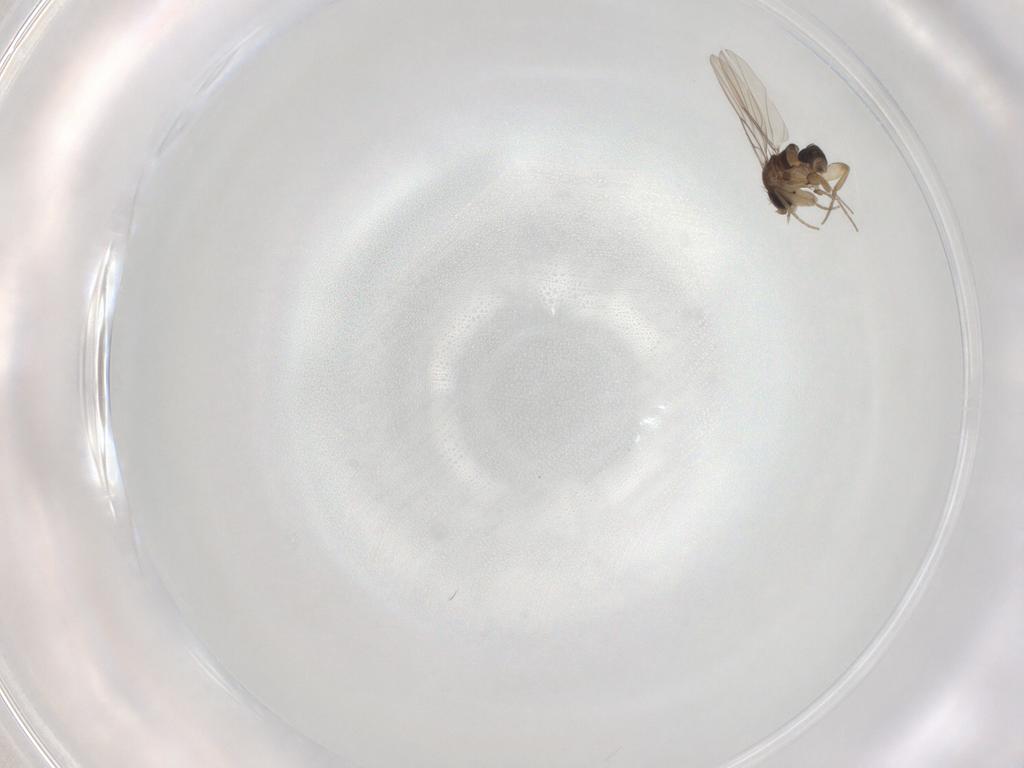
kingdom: Animalia
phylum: Arthropoda
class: Insecta
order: Diptera
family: Phoridae
